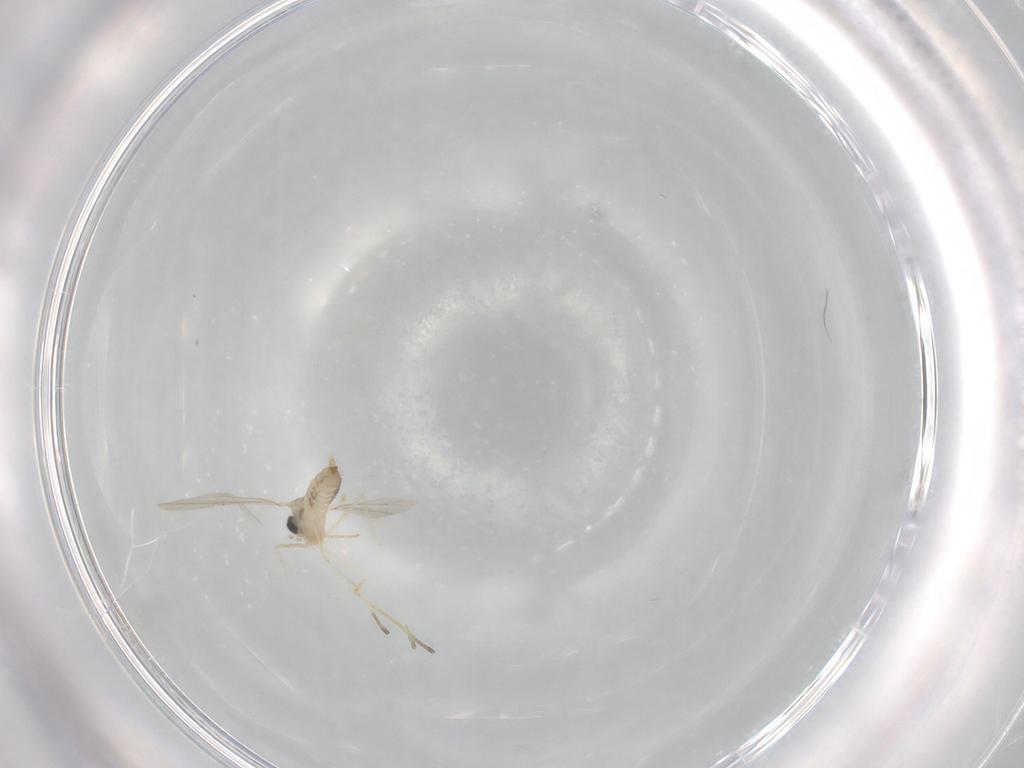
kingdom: Animalia
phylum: Arthropoda
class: Insecta
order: Diptera
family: Cecidomyiidae
